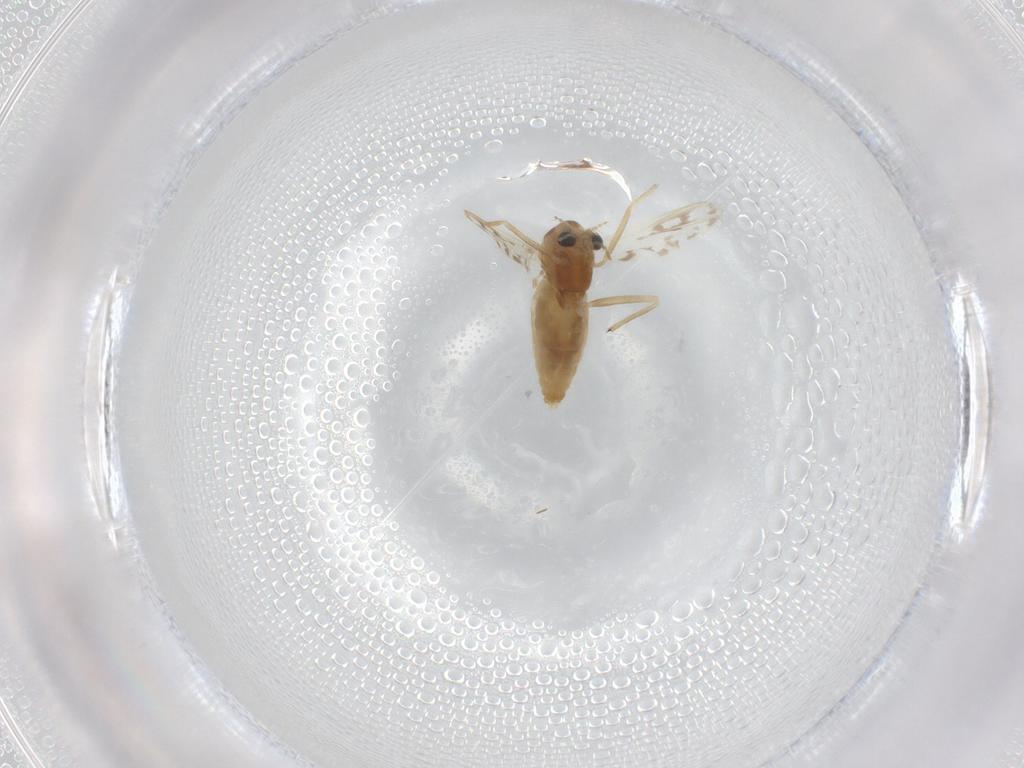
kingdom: Animalia
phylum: Arthropoda
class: Insecta
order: Diptera
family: Chironomidae
